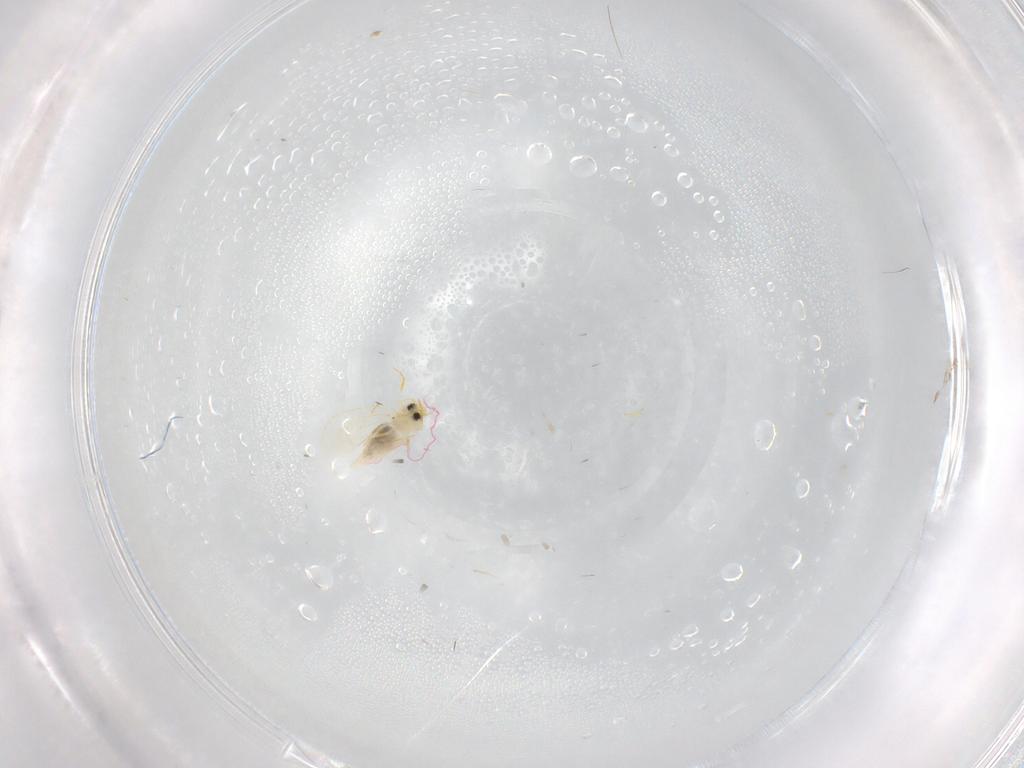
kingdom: Animalia
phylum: Arthropoda
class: Insecta
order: Hemiptera
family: Aleyrodidae
